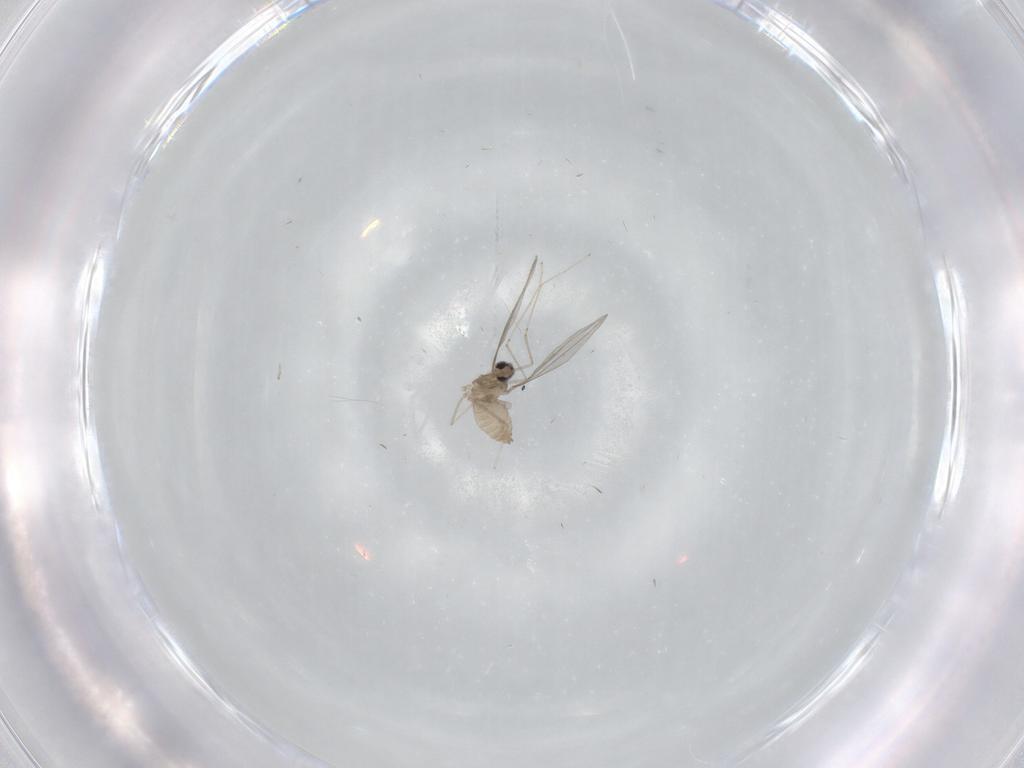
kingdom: Animalia
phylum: Arthropoda
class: Insecta
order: Diptera
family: Cecidomyiidae
